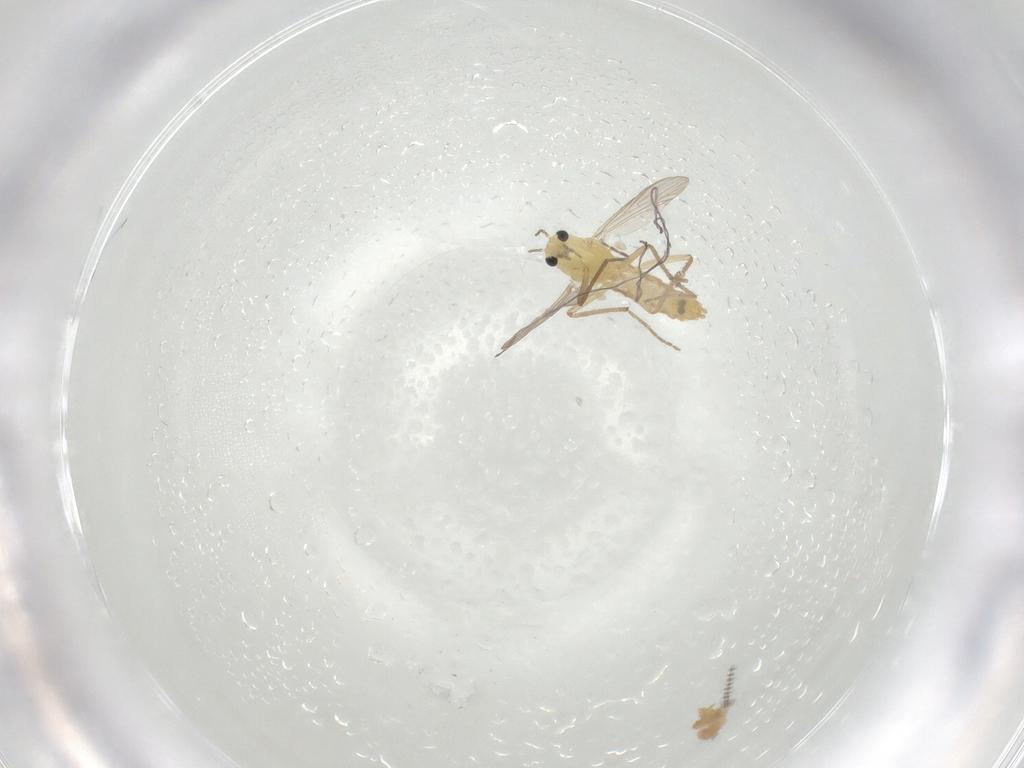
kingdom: Animalia
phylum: Arthropoda
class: Insecta
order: Diptera
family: Chironomidae
